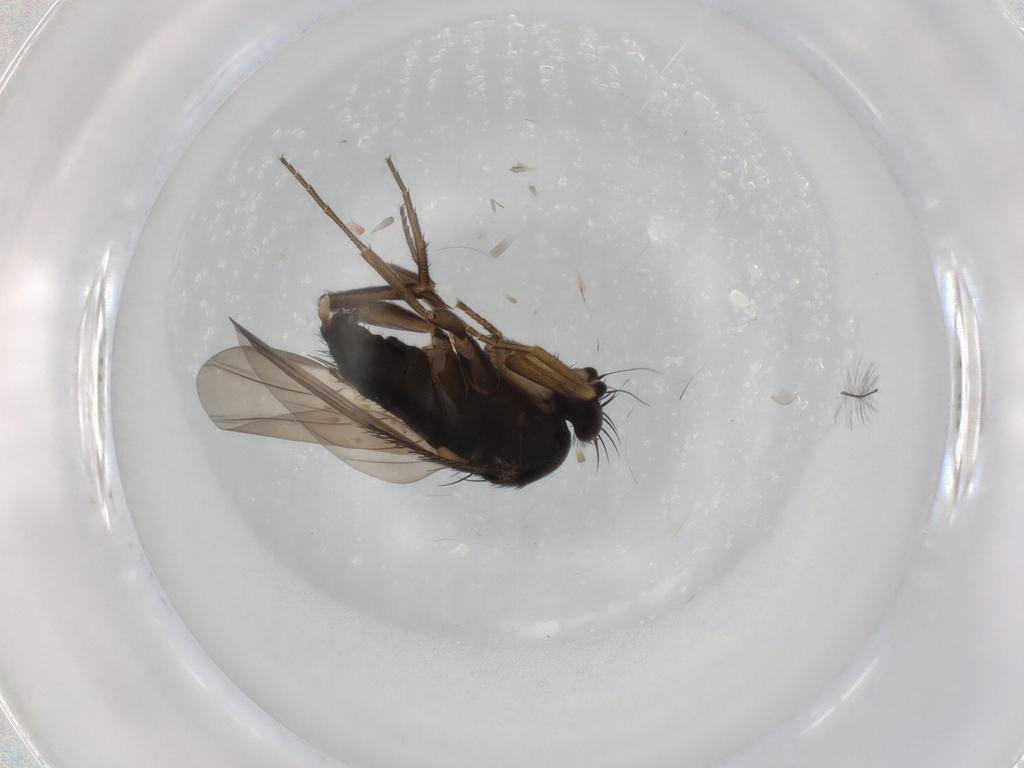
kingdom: Animalia
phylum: Arthropoda
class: Insecta
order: Diptera
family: Phoridae
